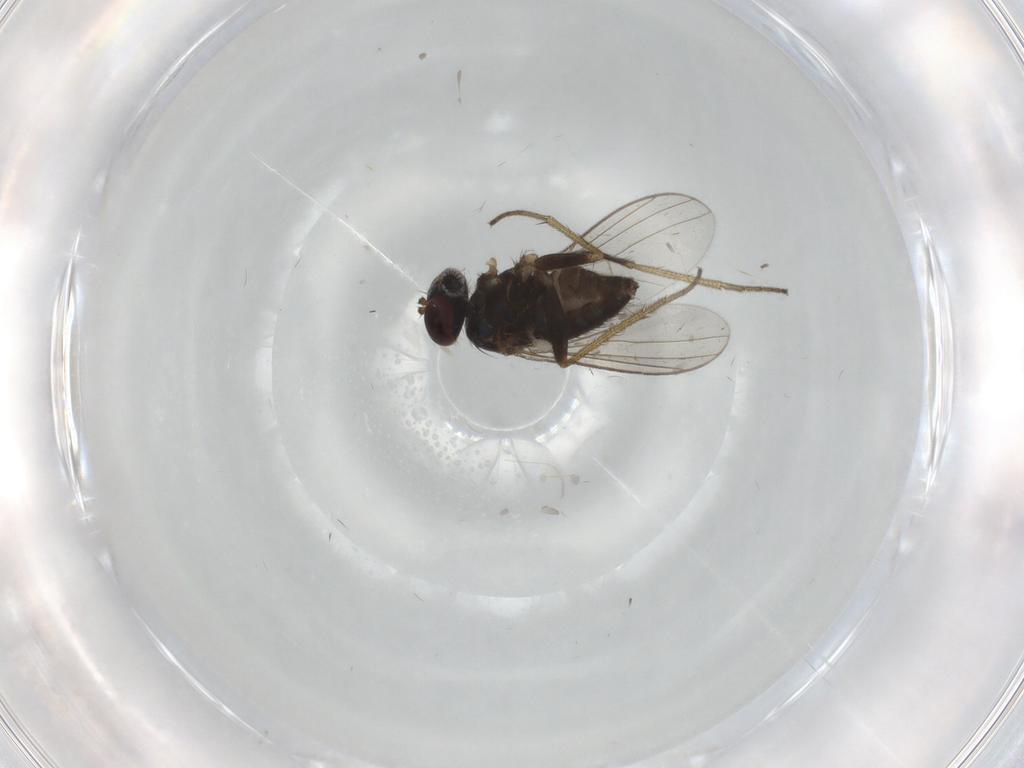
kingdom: Animalia
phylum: Arthropoda
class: Insecta
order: Diptera
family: Dolichopodidae
